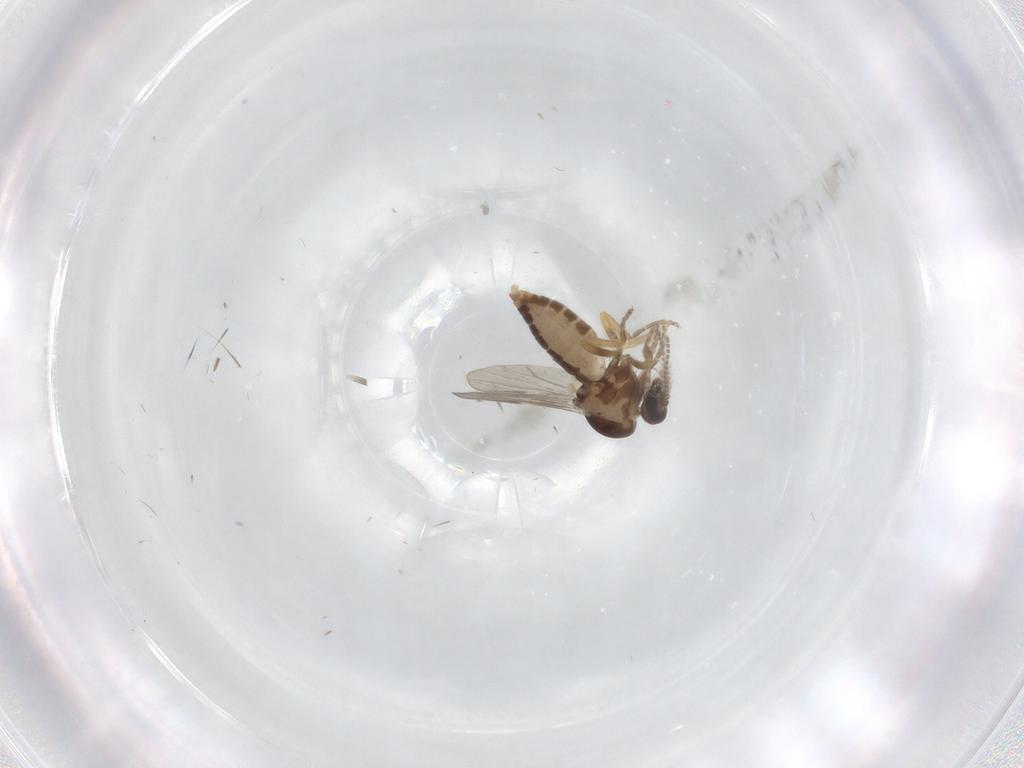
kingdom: Animalia
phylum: Arthropoda
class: Insecta
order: Diptera
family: Ceratopogonidae
